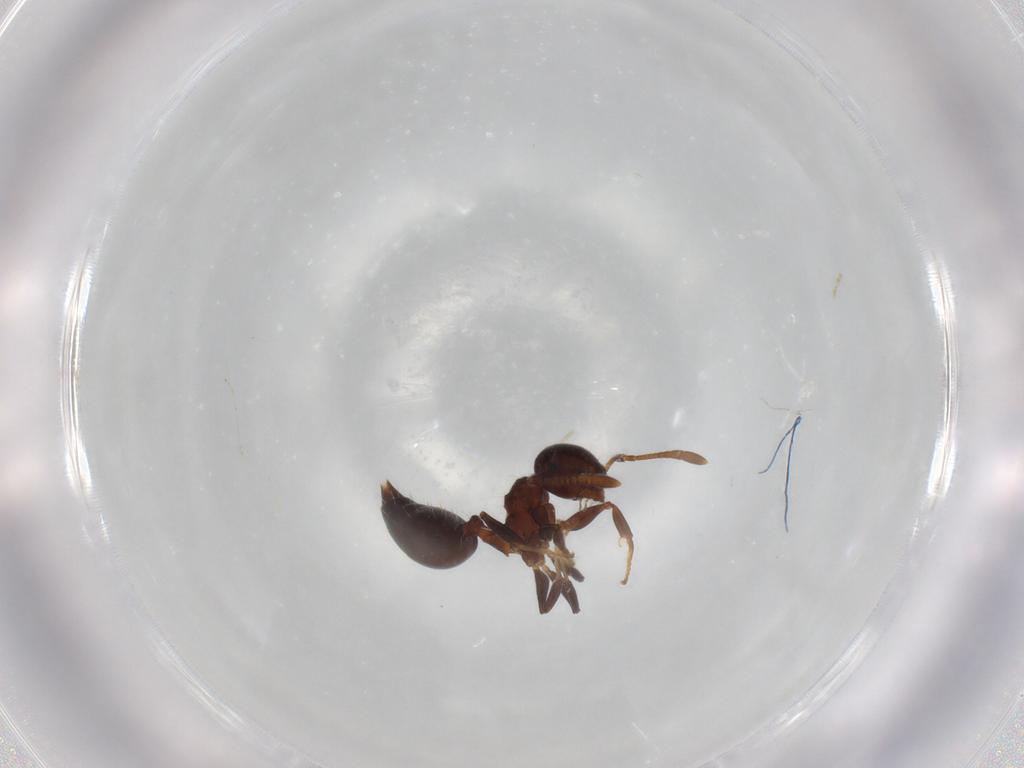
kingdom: Animalia
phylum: Arthropoda
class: Insecta
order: Hymenoptera
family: Formicidae
